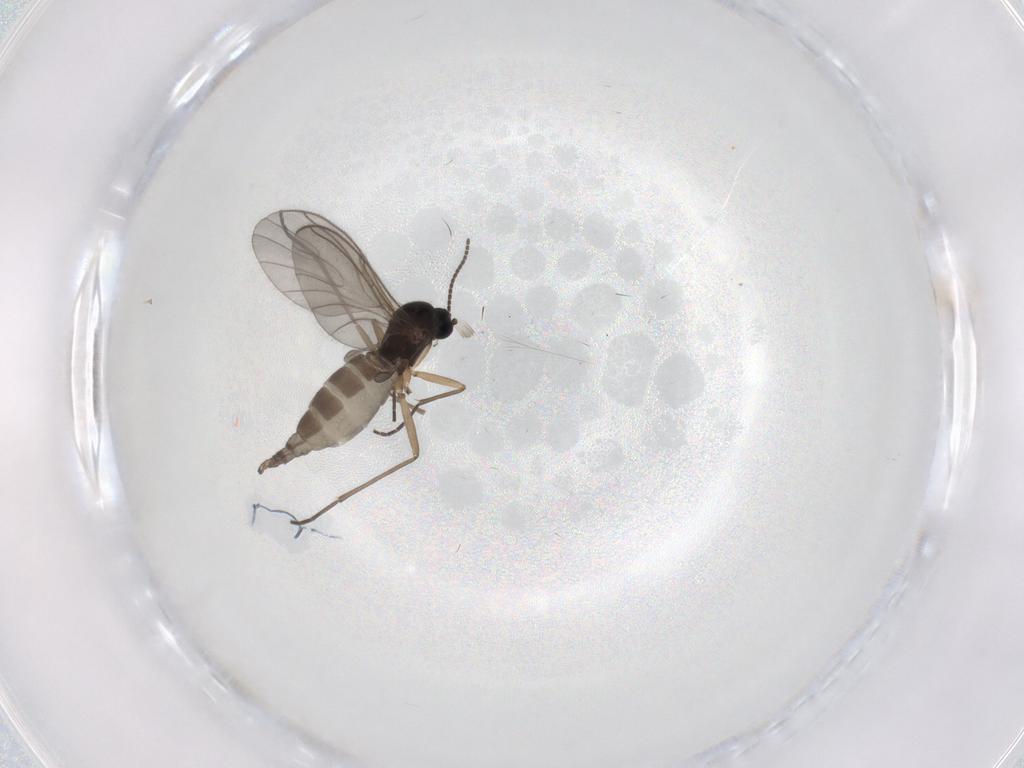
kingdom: Animalia
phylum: Arthropoda
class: Insecta
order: Diptera
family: Sciaridae
